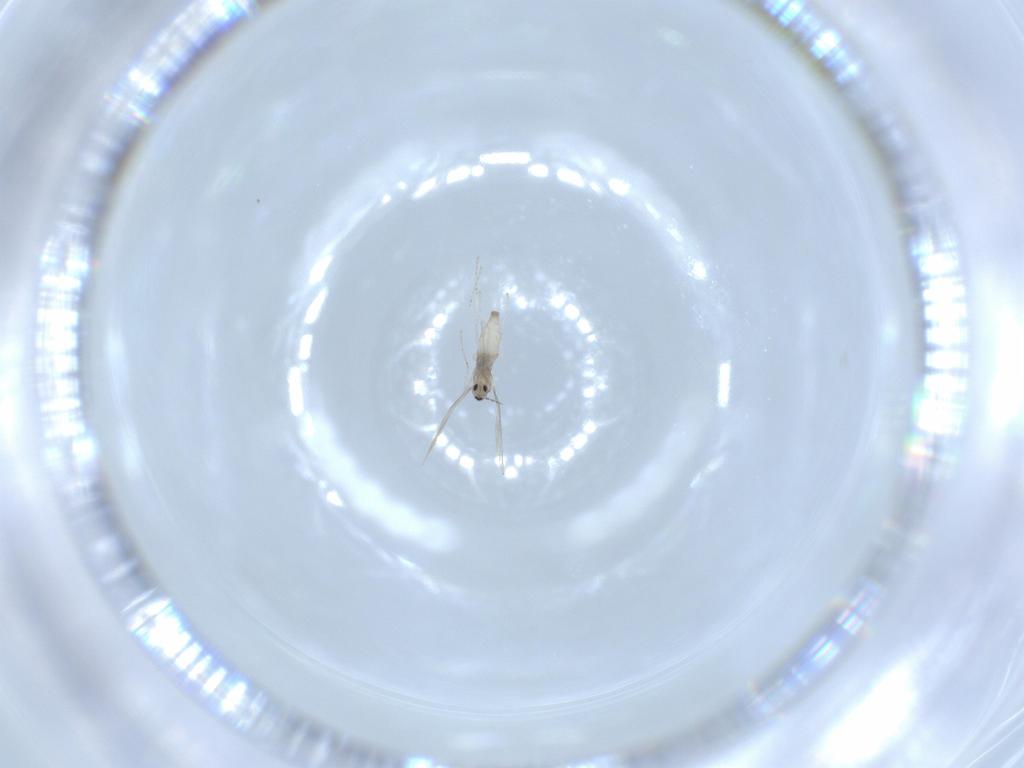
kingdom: Animalia
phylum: Arthropoda
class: Insecta
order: Diptera
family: Cecidomyiidae
